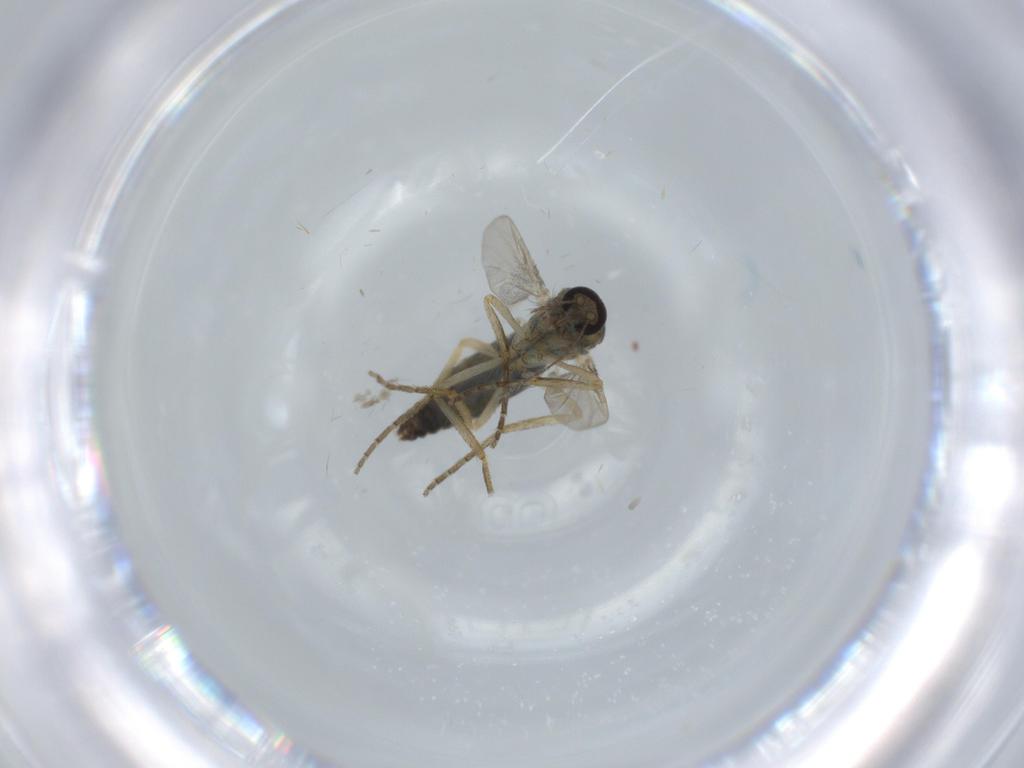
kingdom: Animalia
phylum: Arthropoda
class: Insecta
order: Diptera
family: Ceratopogonidae
